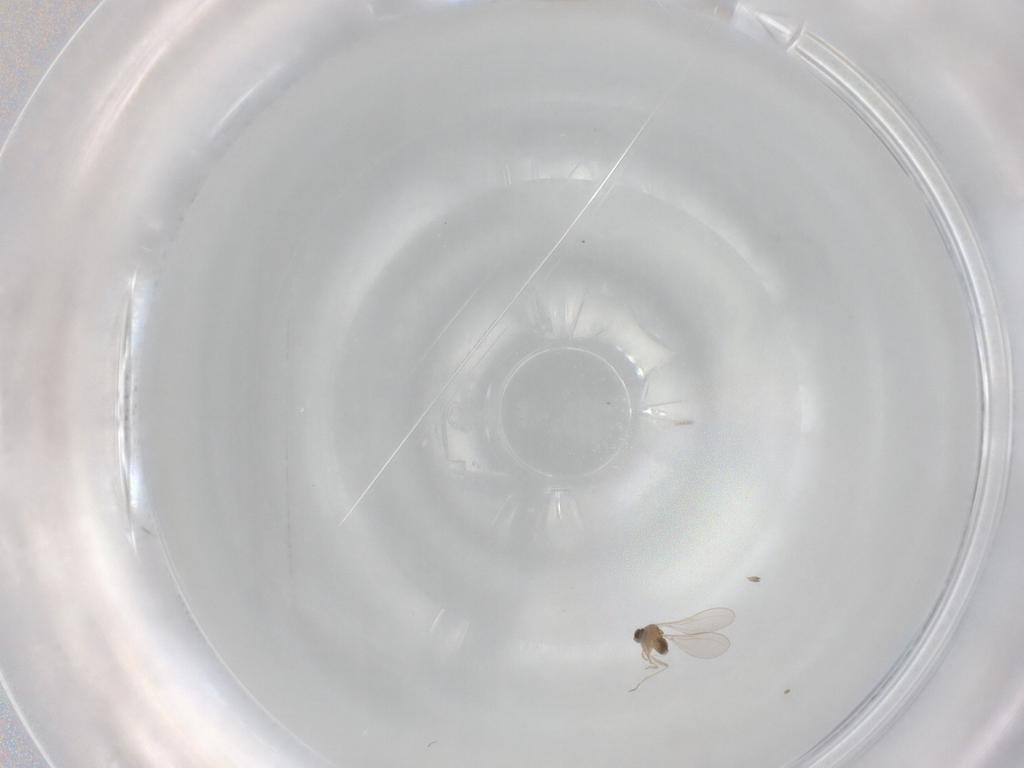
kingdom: Animalia
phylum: Arthropoda
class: Insecta
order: Diptera
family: Cecidomyiidae
